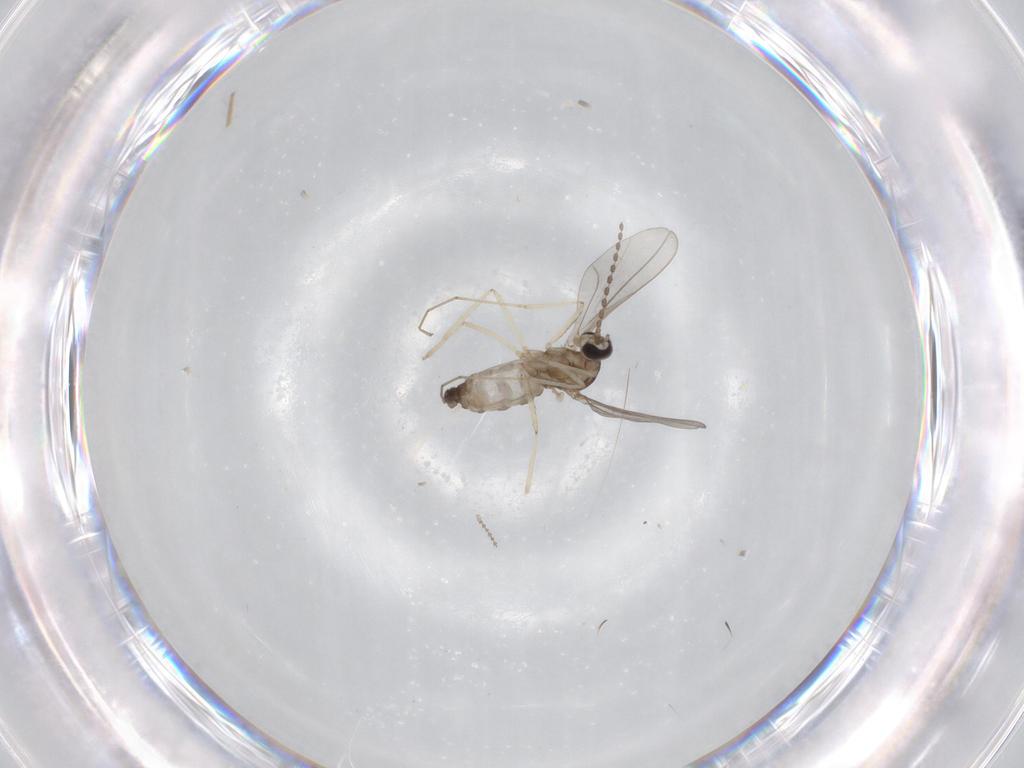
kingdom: Animalia
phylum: Arthropoda
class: Insecta
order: Diptera
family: Cecidomyiidae
